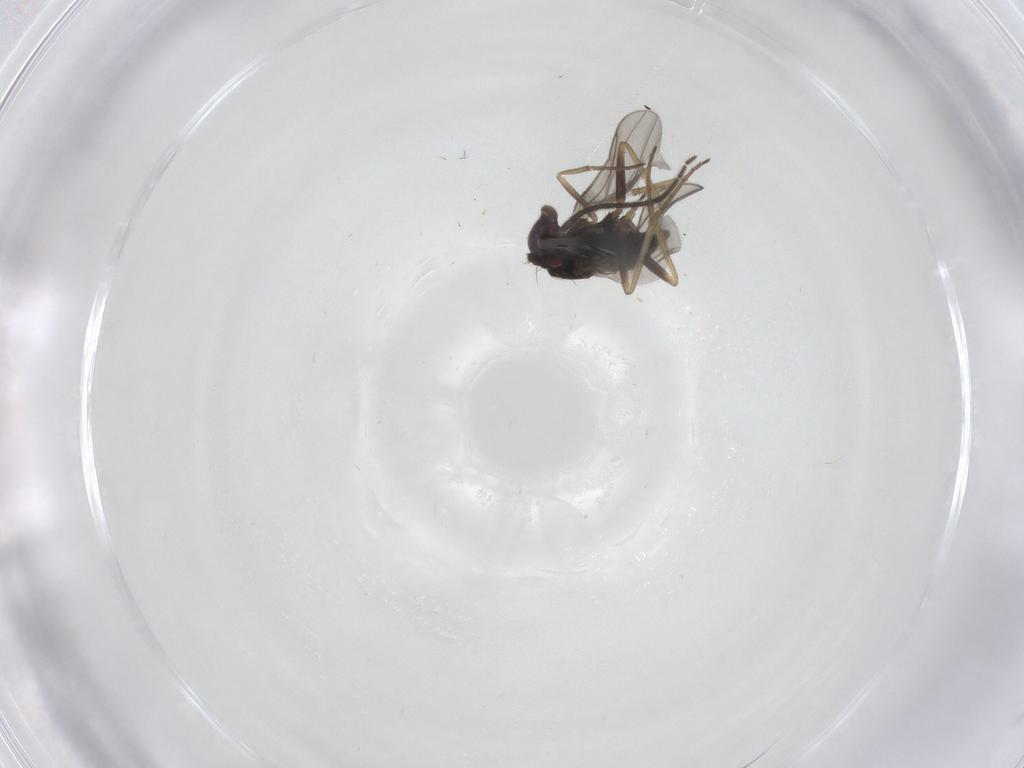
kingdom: Animalia
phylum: Arthropoda
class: Insecta
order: Diptera
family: Sciaridae
